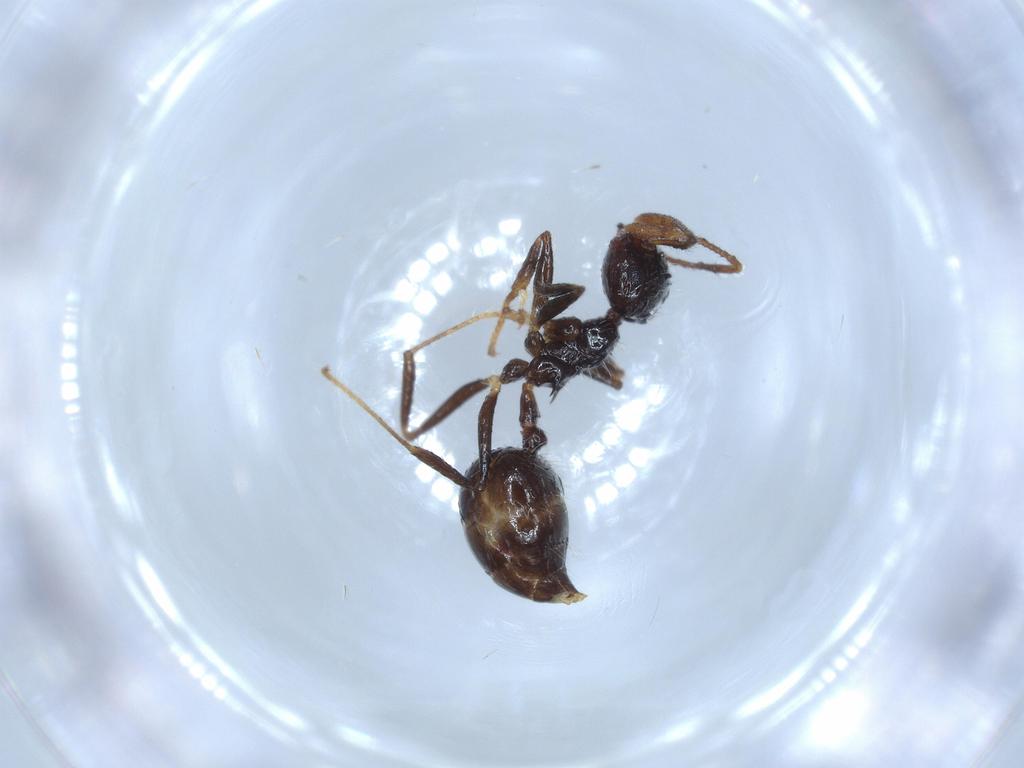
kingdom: Animalia
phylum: Arthropoda
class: Insecta
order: Hymenoptera
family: Formicidae
